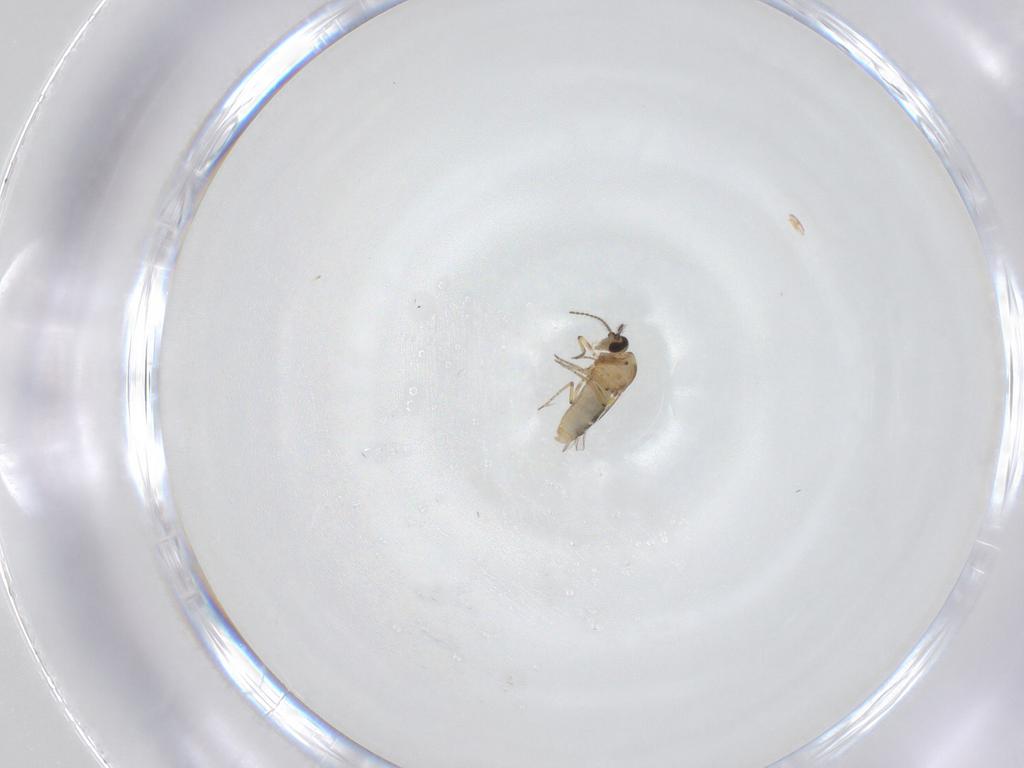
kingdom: Animalia
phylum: Arthropoda
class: Insecta
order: Diptera
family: Ceratopogonidae
